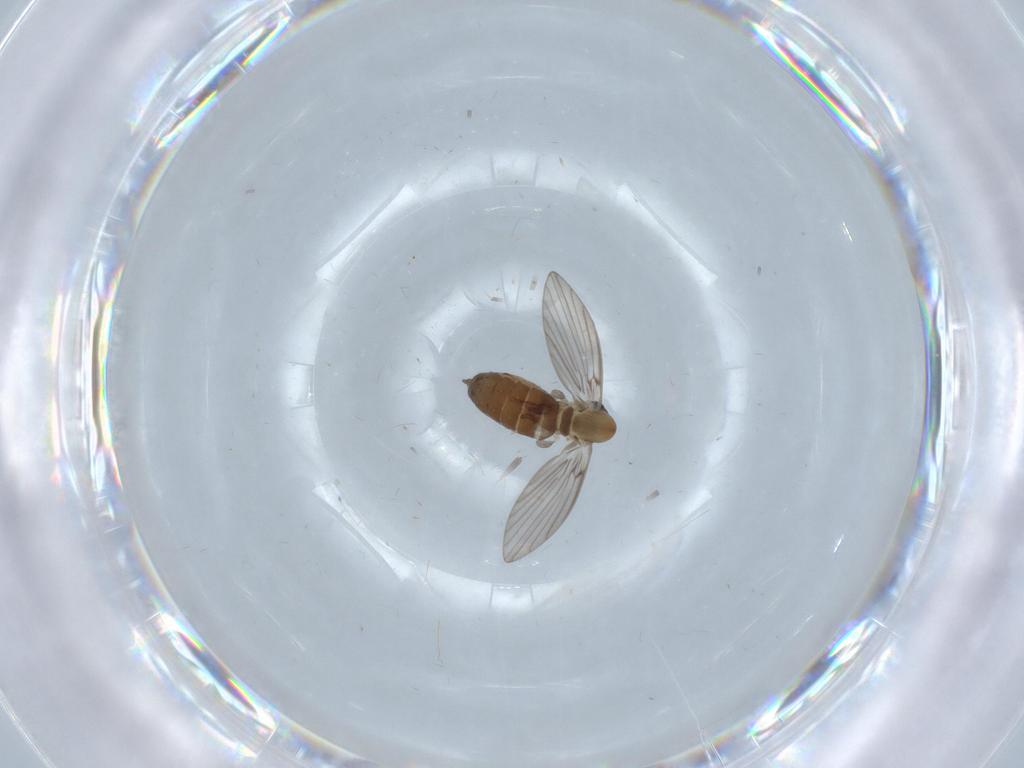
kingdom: Animalia
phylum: Arthropoda
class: Insecta
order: Diptera
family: Psychodidae
